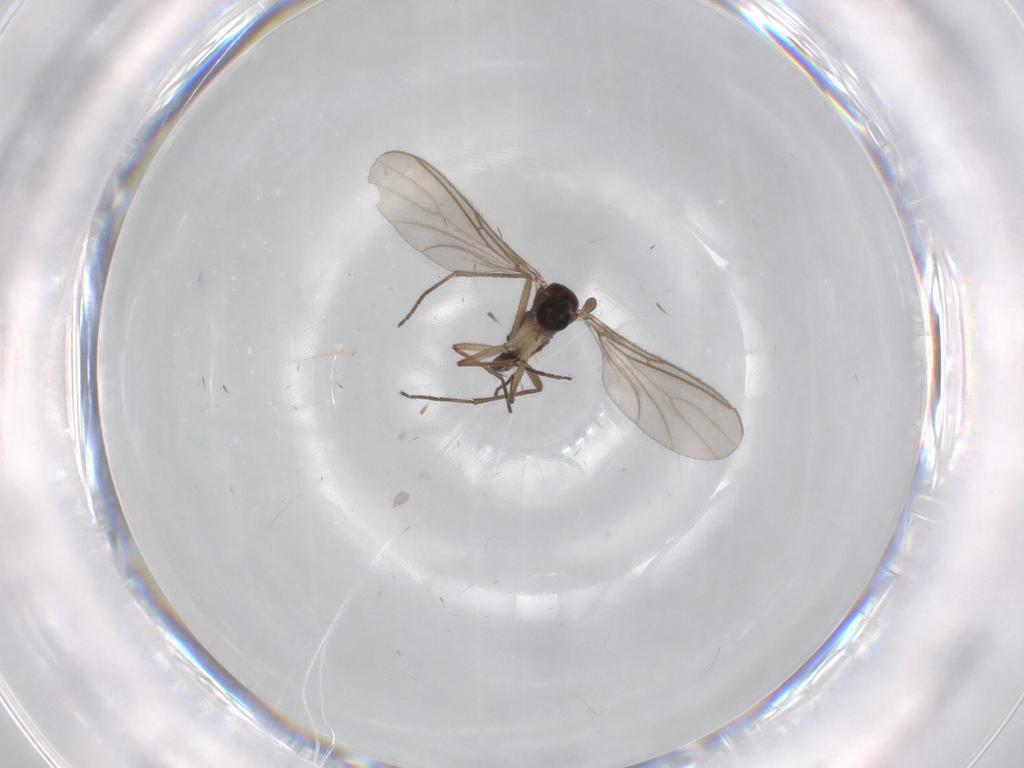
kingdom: Animalia
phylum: Arthropoda
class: Insecta
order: Diptera
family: Sciaridae
